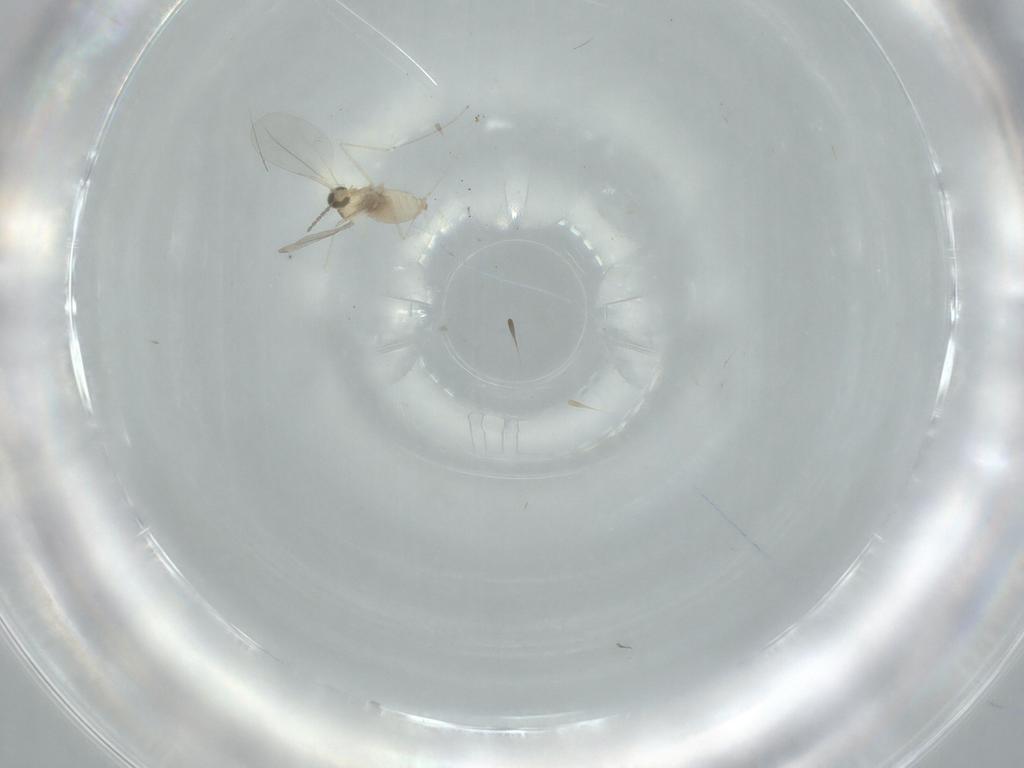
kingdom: Animalia
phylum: Arthropoda
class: Insecta
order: Diptera
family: Cecidomyiidae
